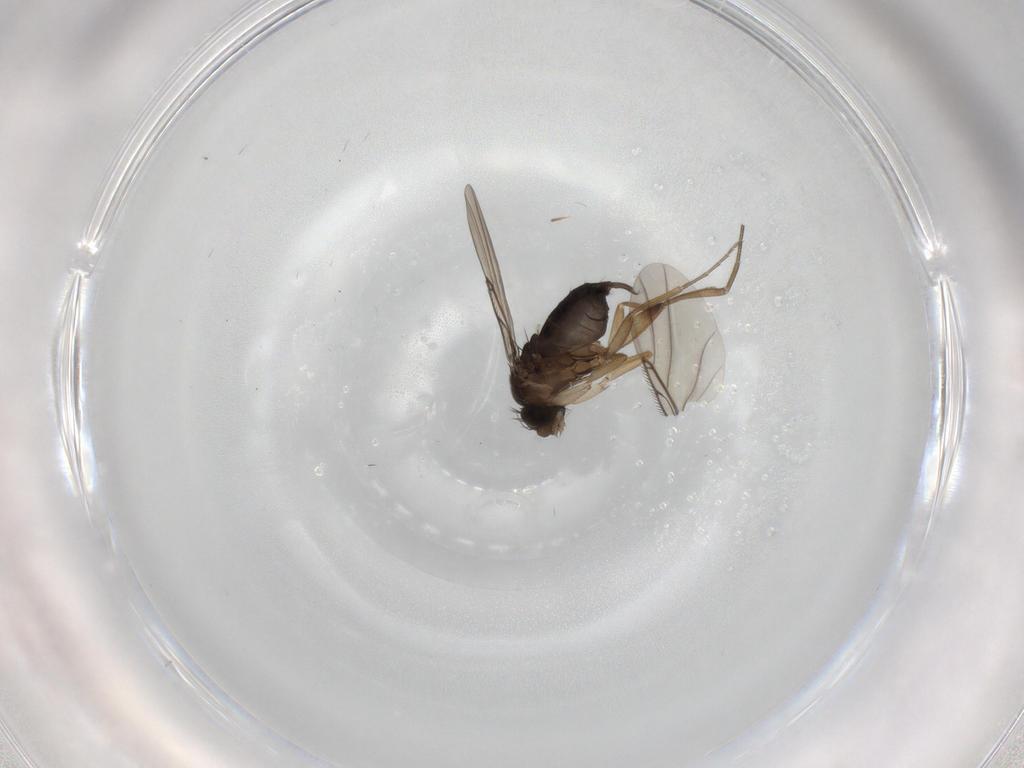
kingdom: Animalia
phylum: Arthropoda
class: Insecta
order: Diptera
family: Phoridae
